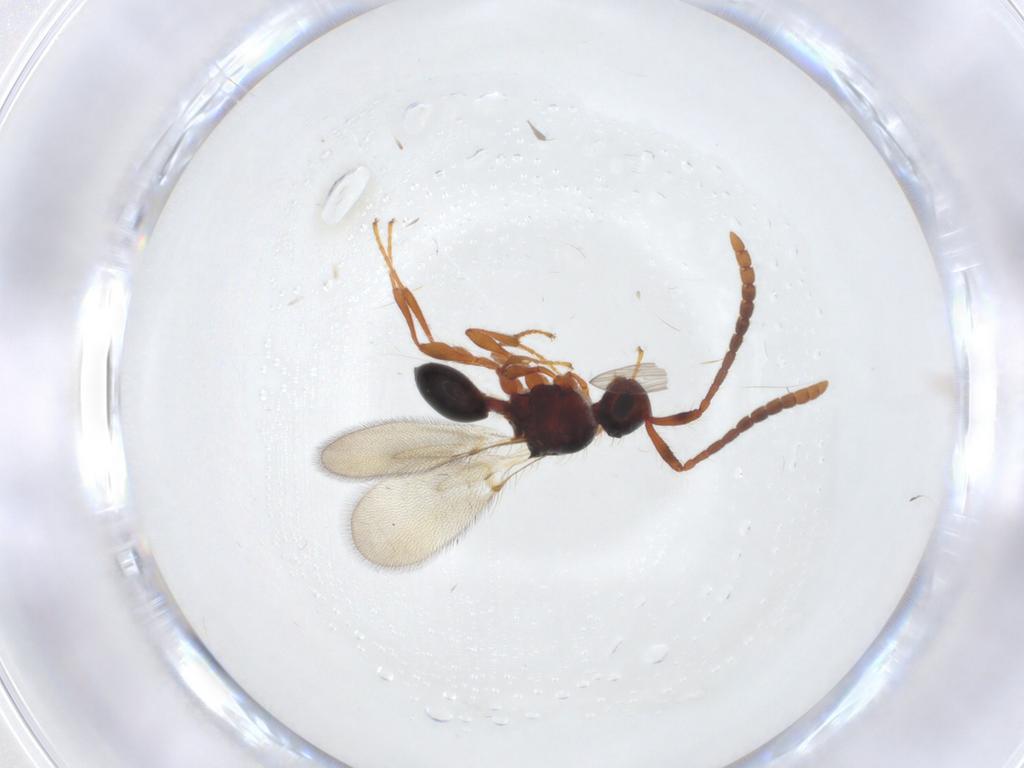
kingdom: Animalia
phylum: Arthropoda
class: Insecta
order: Hymenoptera
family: Diapriidae
